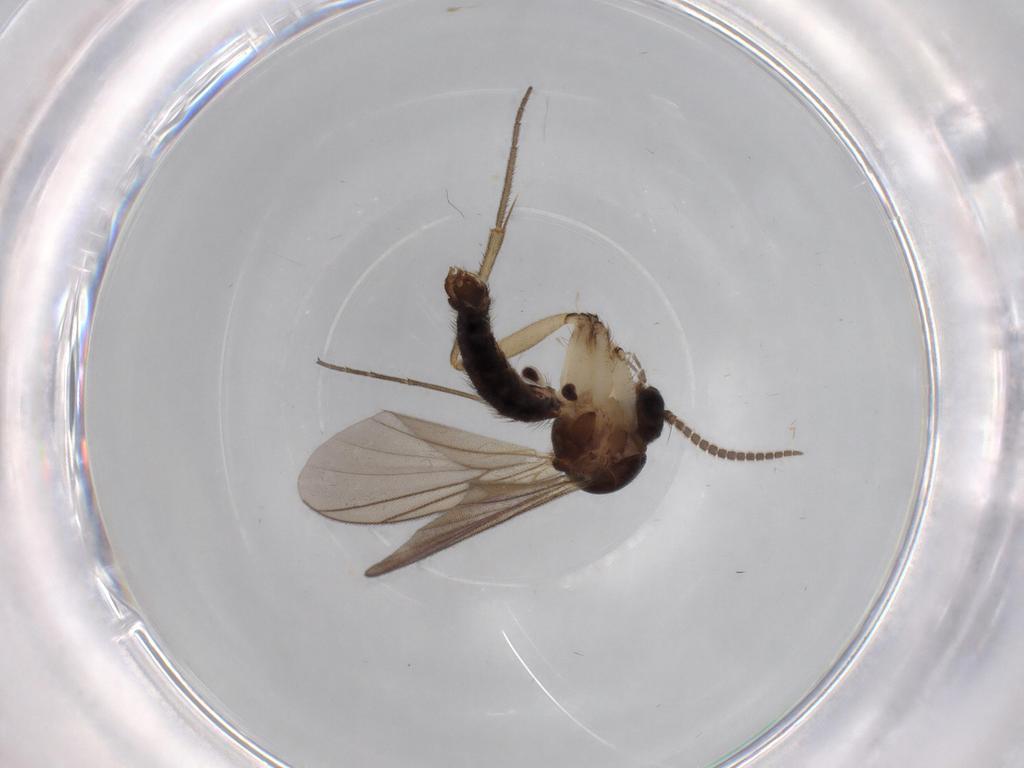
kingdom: Animalia
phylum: Arthropoda
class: Insecta
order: Diptera
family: Mycetophilidae
